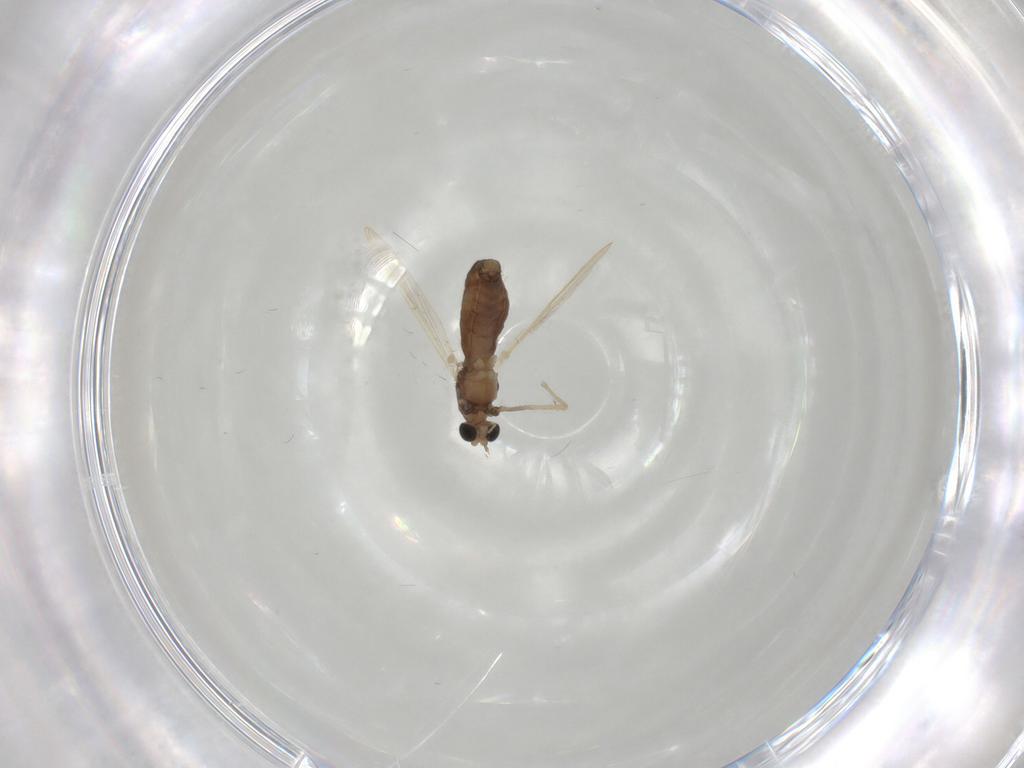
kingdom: Animalia
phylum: Arthropoda
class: Insecta
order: Diptera
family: Chironomidae
